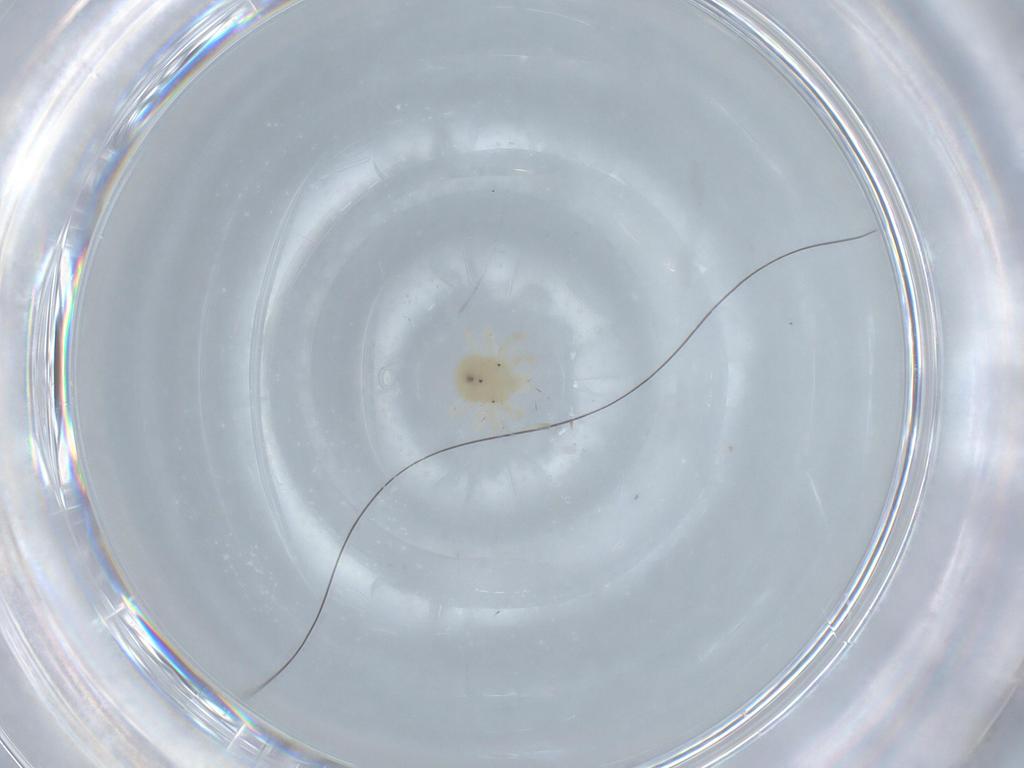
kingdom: Animalia
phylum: Arthropoda
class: Arachnida
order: Trombidiformes
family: Anystidae
